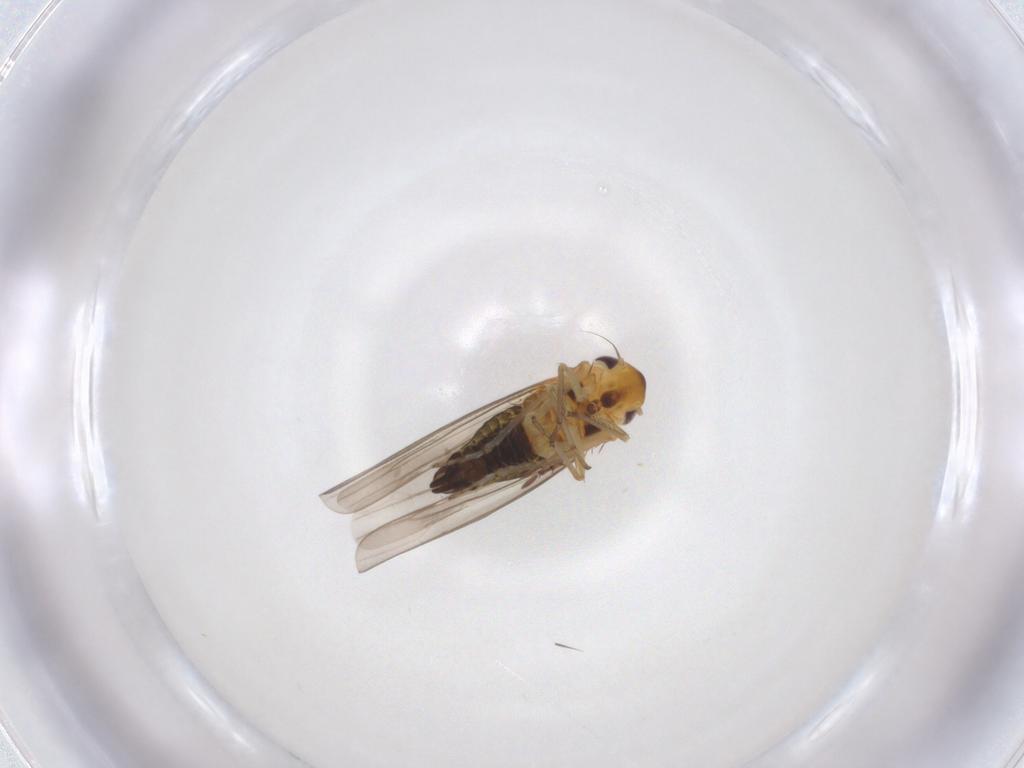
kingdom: Animalia
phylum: Arthropoda
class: Insecta
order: Hemiptera
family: Cicadellidae
